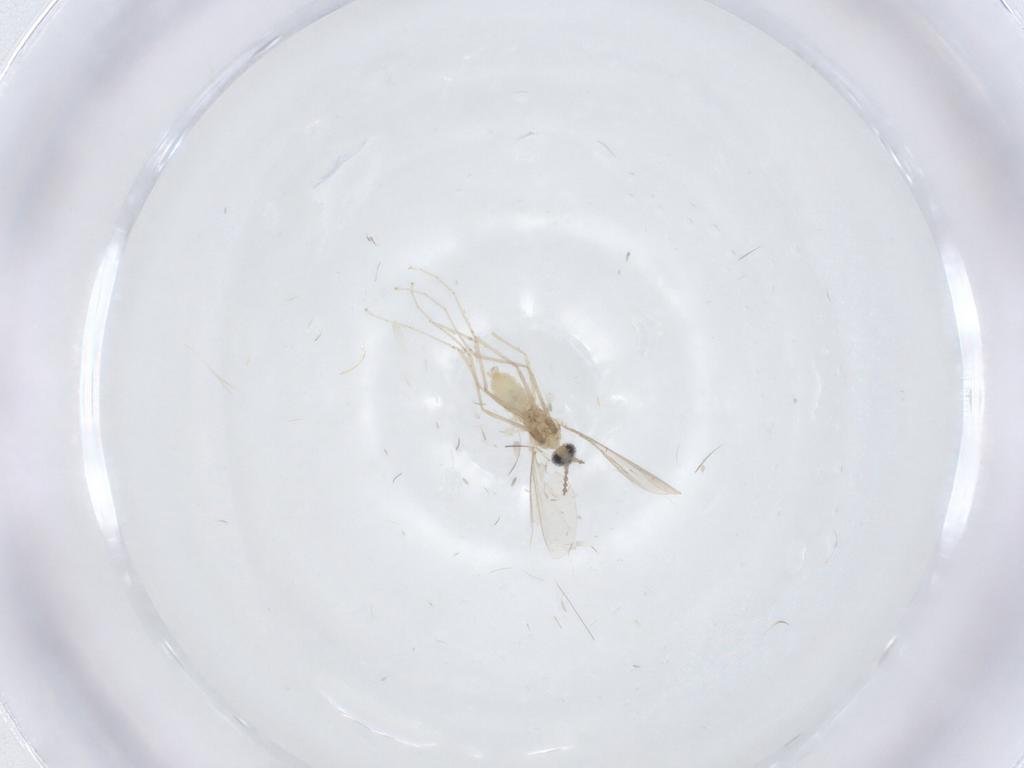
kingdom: Animalia
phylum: Arthropoda
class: Insecta
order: Diptera
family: Cecidomyiidae
